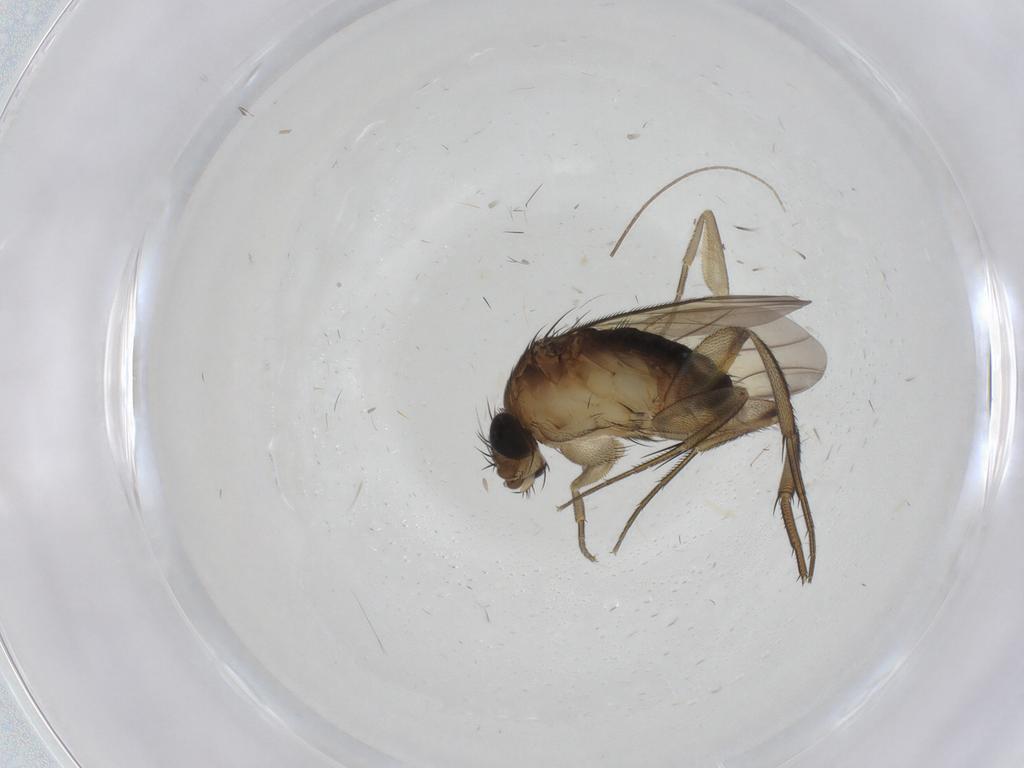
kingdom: Animalia
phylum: Arthropoda
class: Insecta
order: Diptera
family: Phoridae
